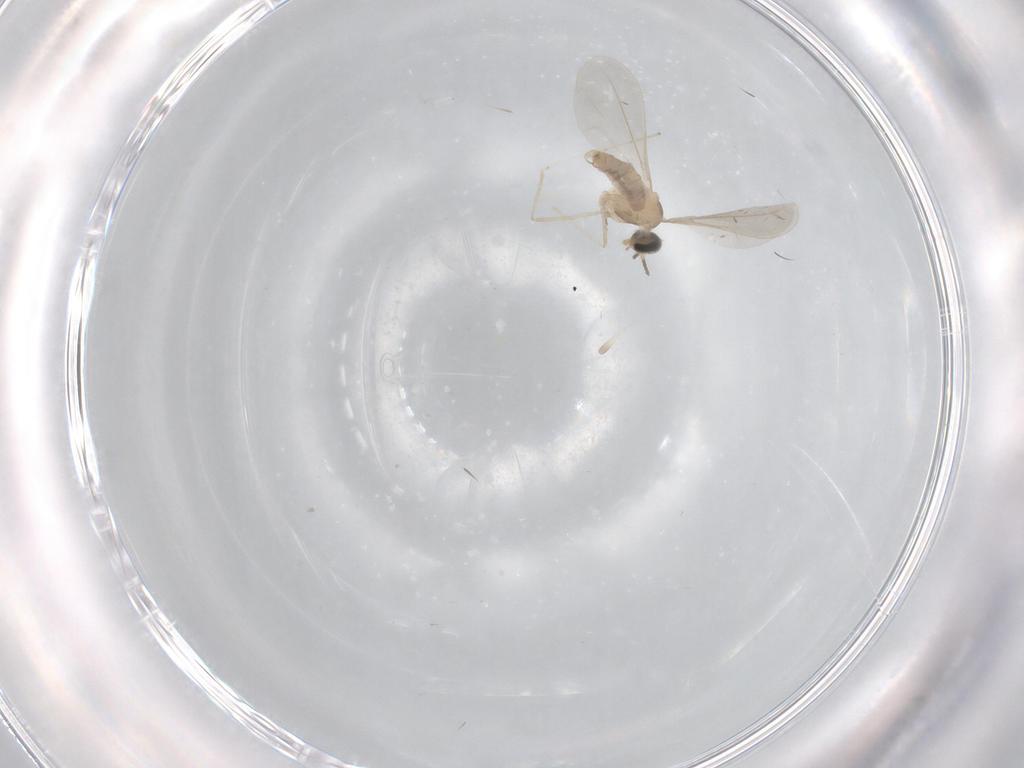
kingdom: Animalia
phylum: Arthropoda
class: Insecta
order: Diptera
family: Cecidomyiidae
